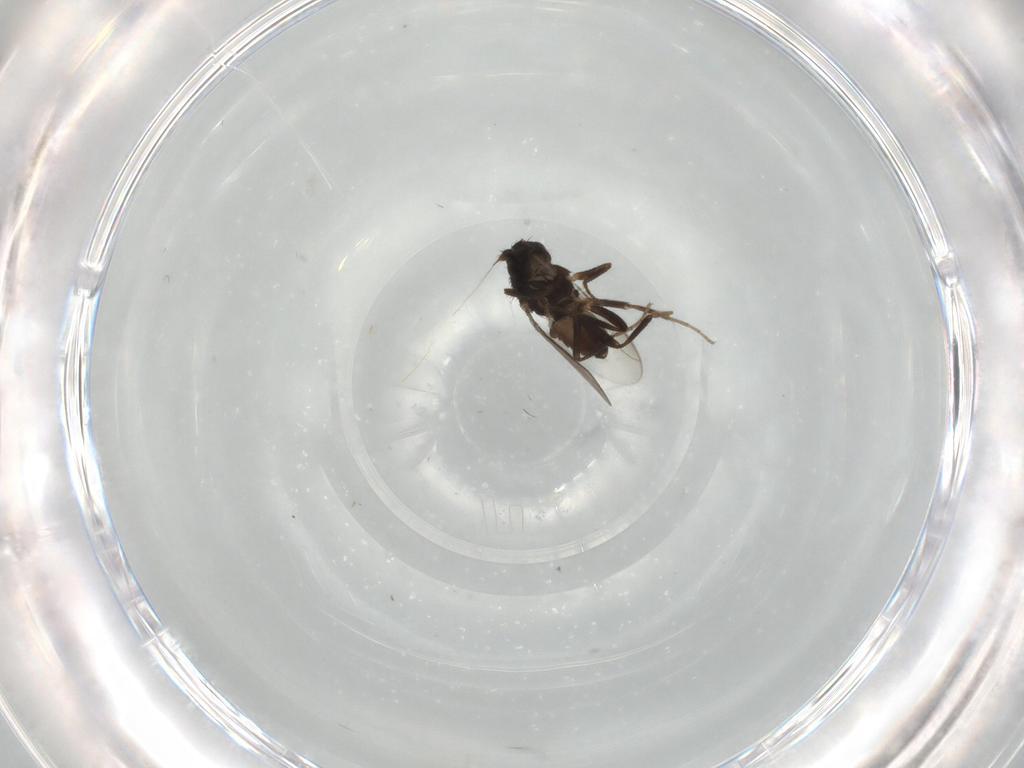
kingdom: Animalia
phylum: Arthropoda
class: Insecta
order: Diptera
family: Sphaeroceridae
